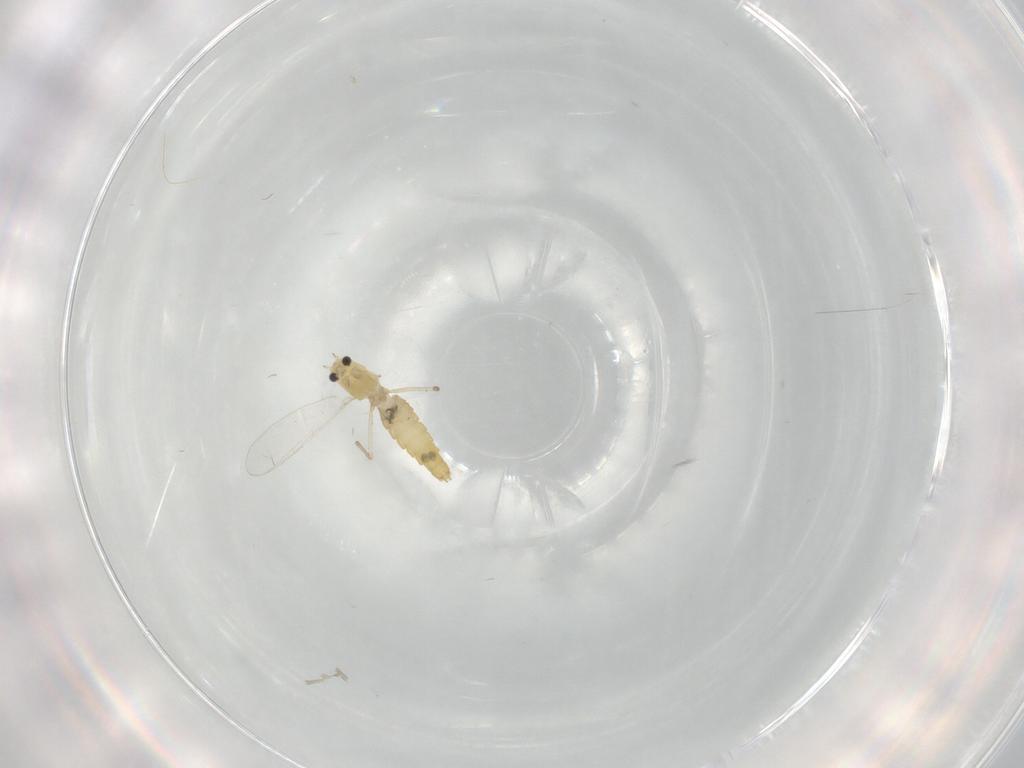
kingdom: Animalia
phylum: Arthropoda
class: Insecta
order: Diptera
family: Chironomidae
